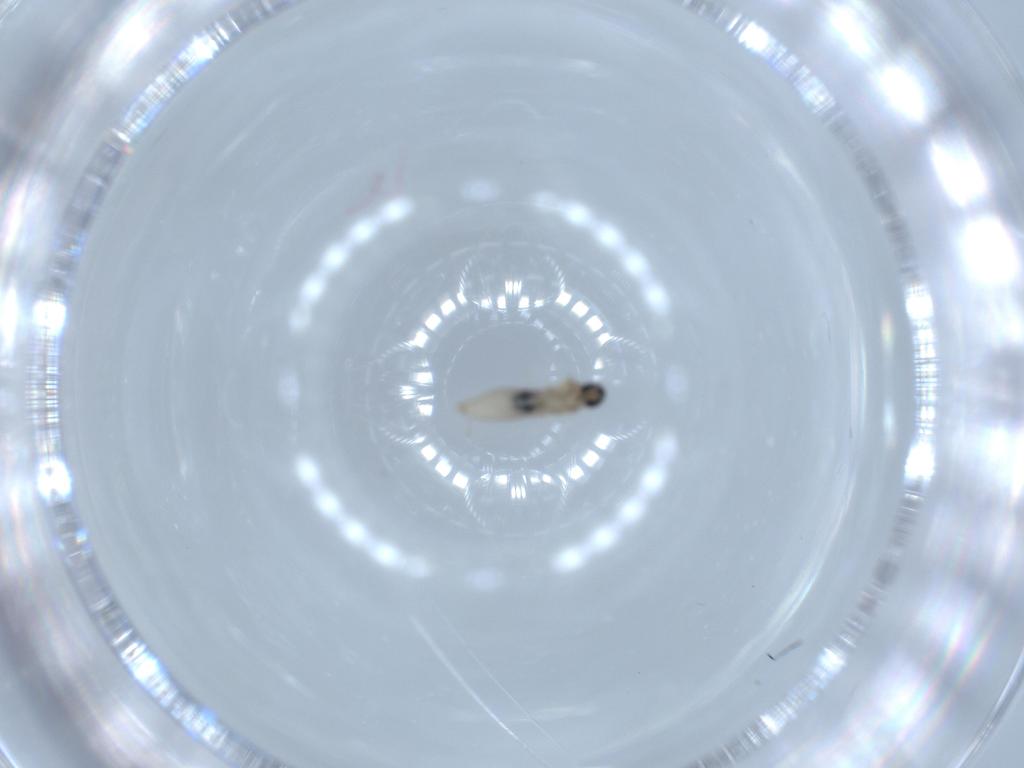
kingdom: Animalia
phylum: Arthropoda
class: Insecta
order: Diptera
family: Cecidomyiidae
